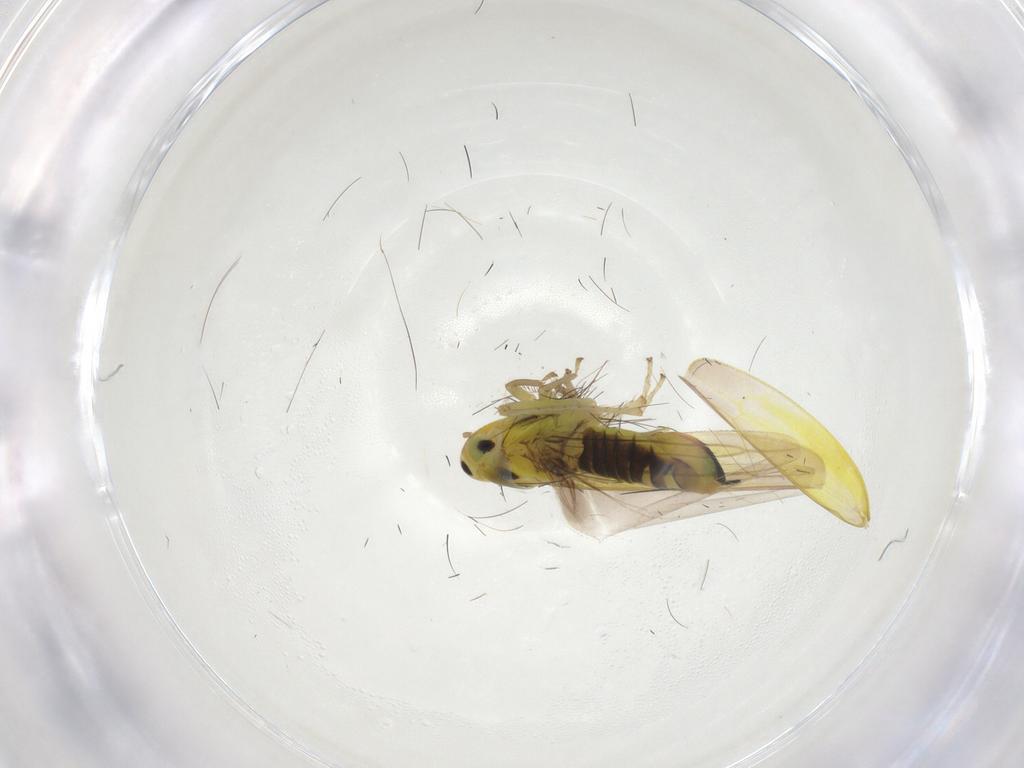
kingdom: Animalia
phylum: Arthropoda
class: Insecta
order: Hemiptera
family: Cicadellidae
